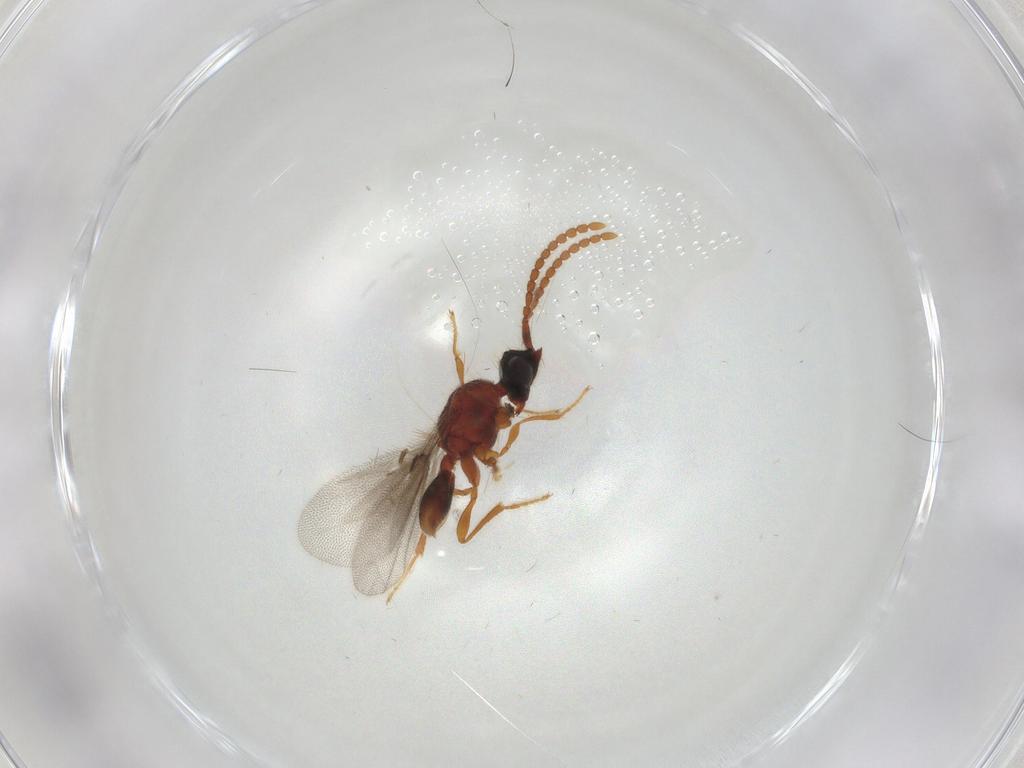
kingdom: Animalia
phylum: Arthropoda
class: Insecta
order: Hymenoptera
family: Diapriidae
